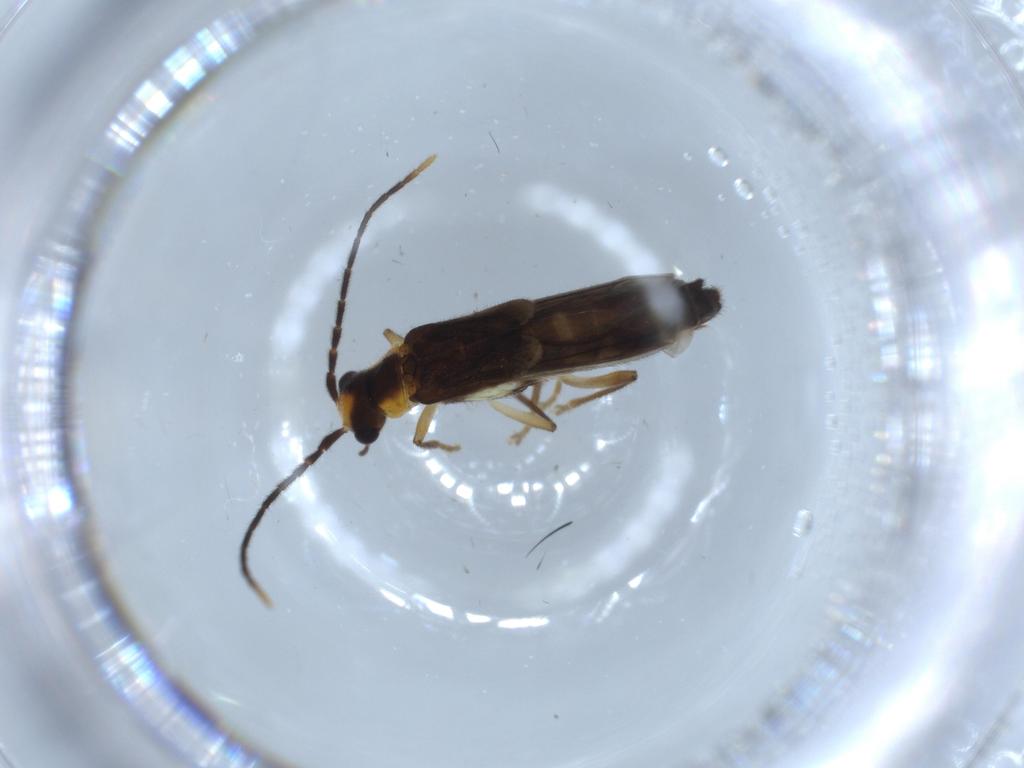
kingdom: Animalia
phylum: Arthropoda
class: Insecta
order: Coleoptera
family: Cantharidae
